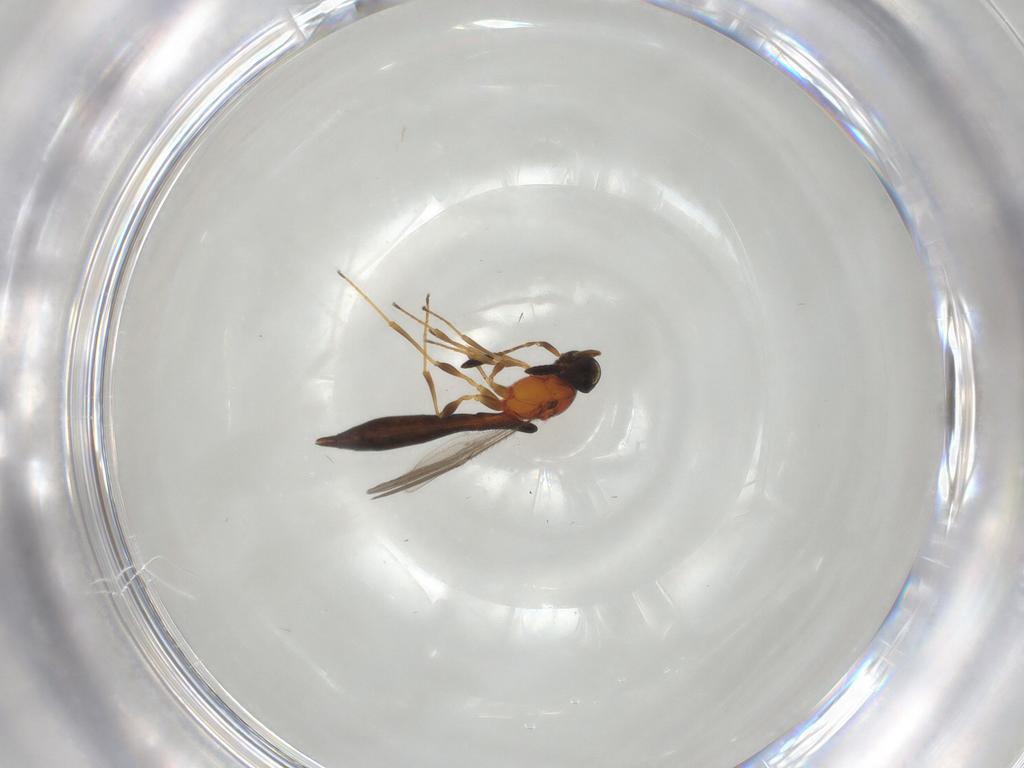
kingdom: Animalia
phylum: Arthropoda
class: Insecta
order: Hymenoptera
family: Scelionidae
